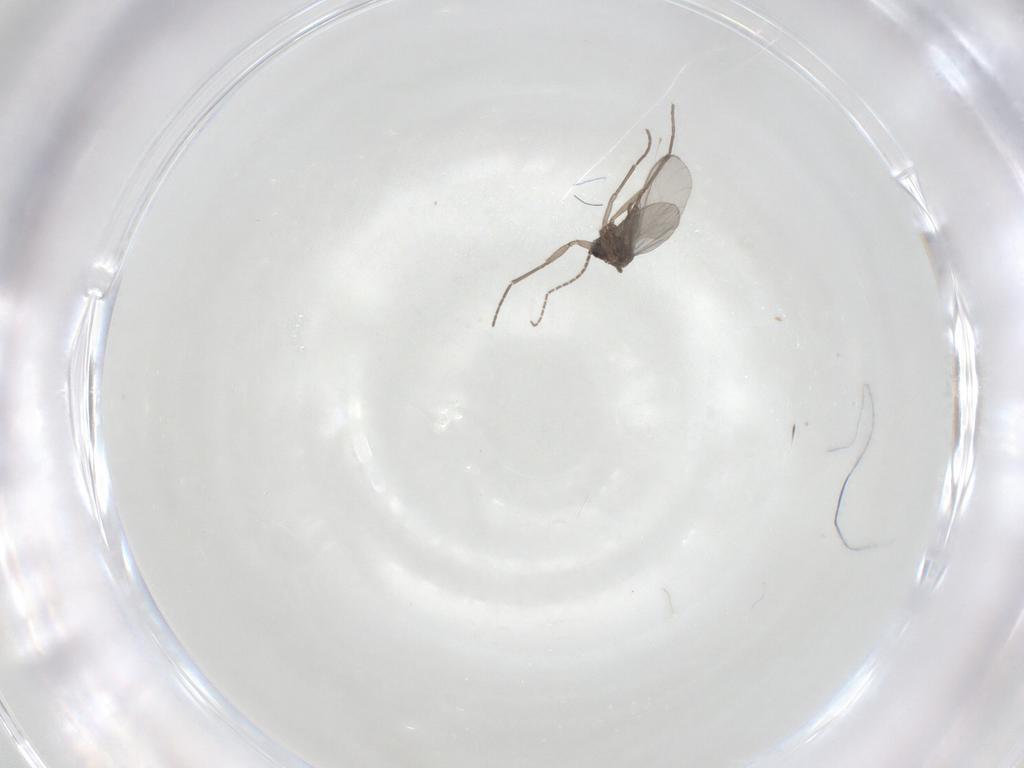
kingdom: Animalia
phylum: Arthropoda
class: Insecta
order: Diptera
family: Sciaridae
